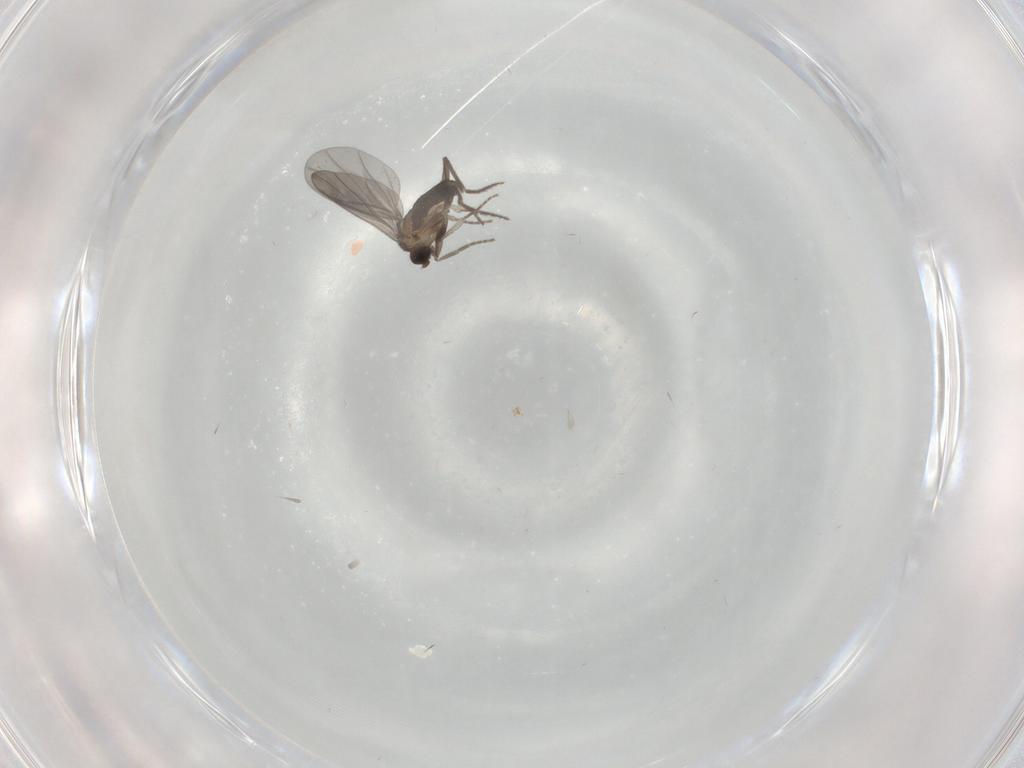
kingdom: Animalia
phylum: Arthropoda
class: Insecta
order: Diptera
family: Phoridae
